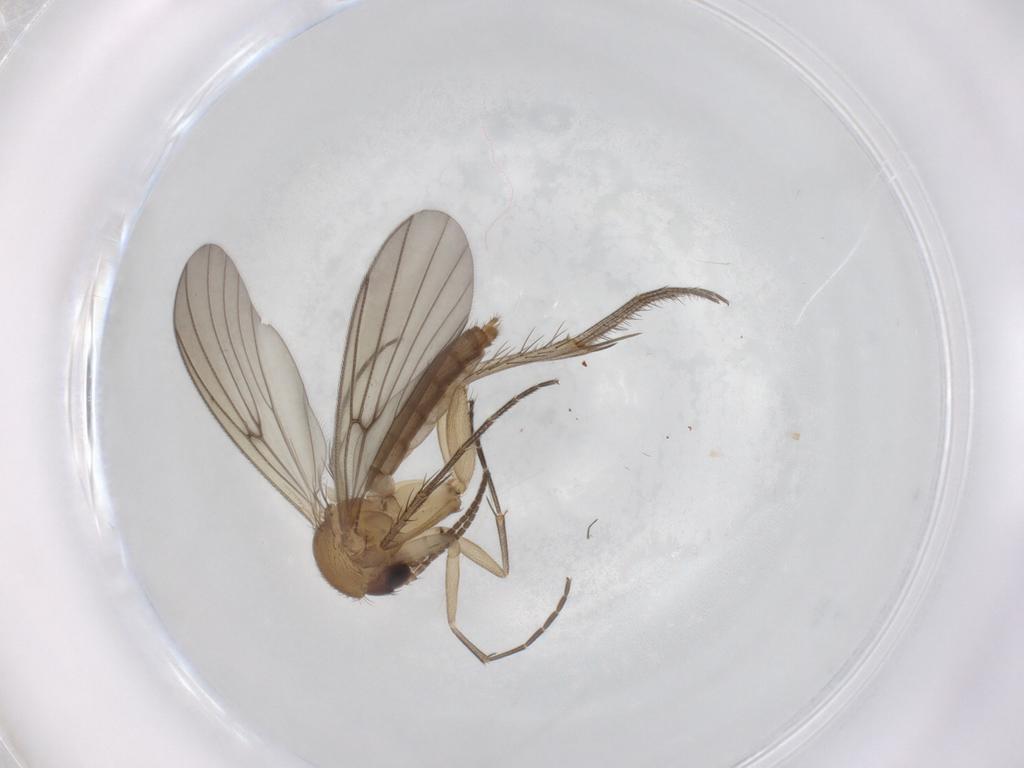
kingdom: Animalia
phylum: Arthropoda
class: Insecta
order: Diptera
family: Mycetophilidae
